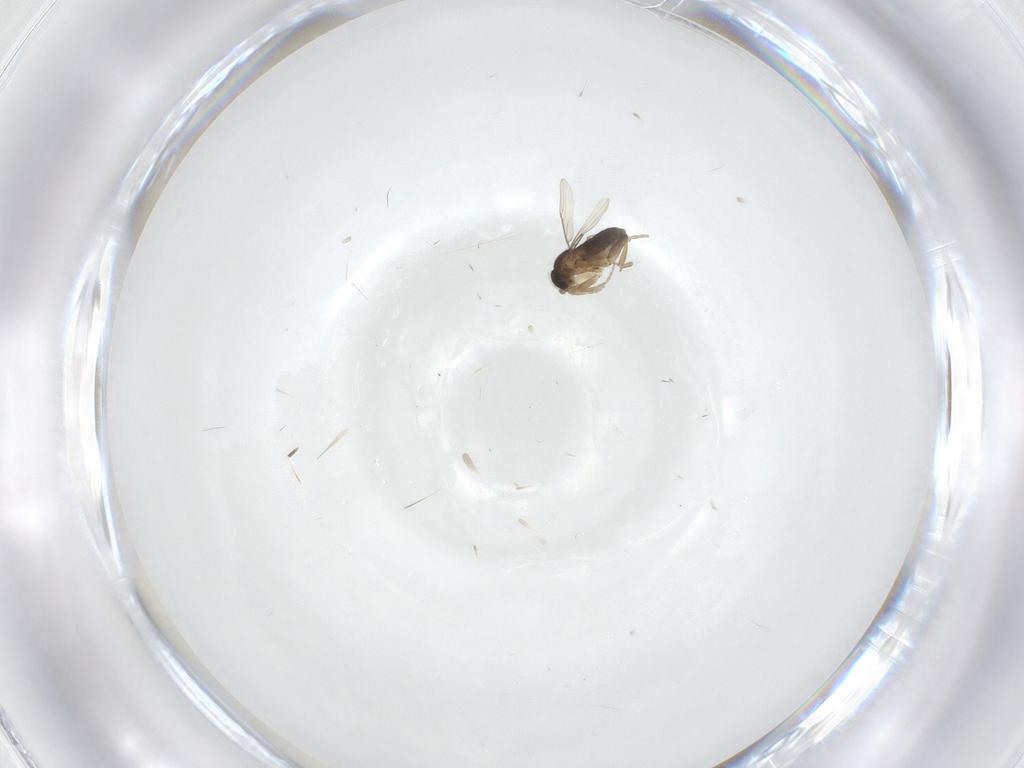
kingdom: Animalia
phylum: Arthropoda
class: Insecta
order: Diptera
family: Phoridae
